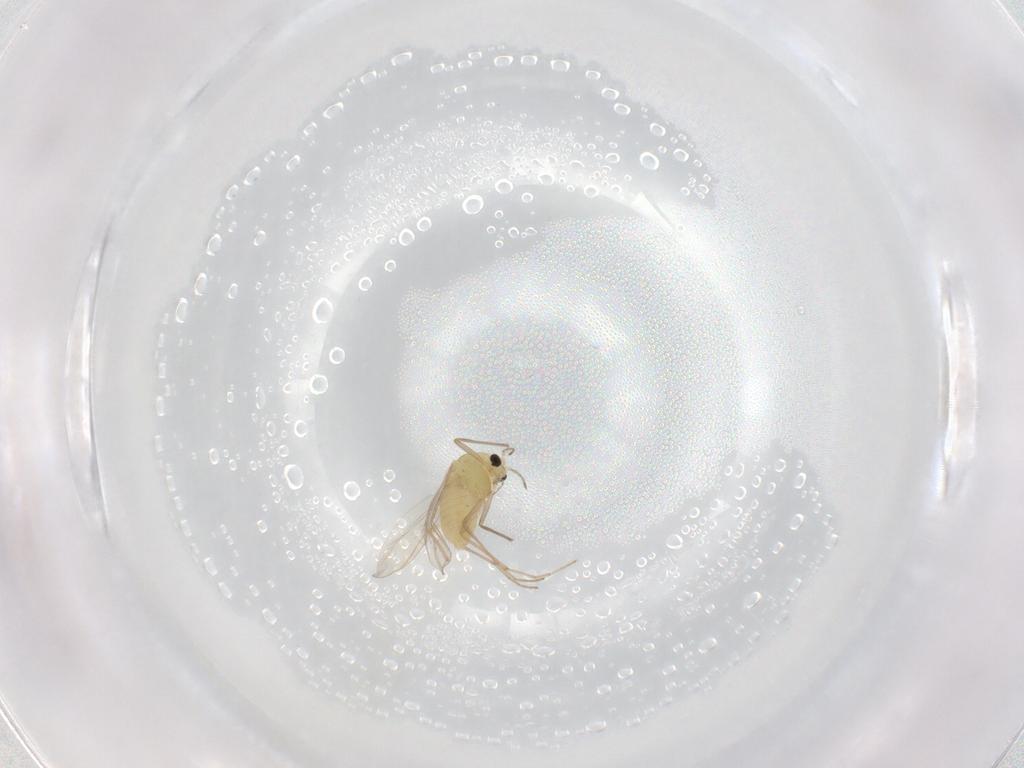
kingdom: Animalia
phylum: Arthropoda
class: Insecta
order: Diptera
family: Chironomidae
